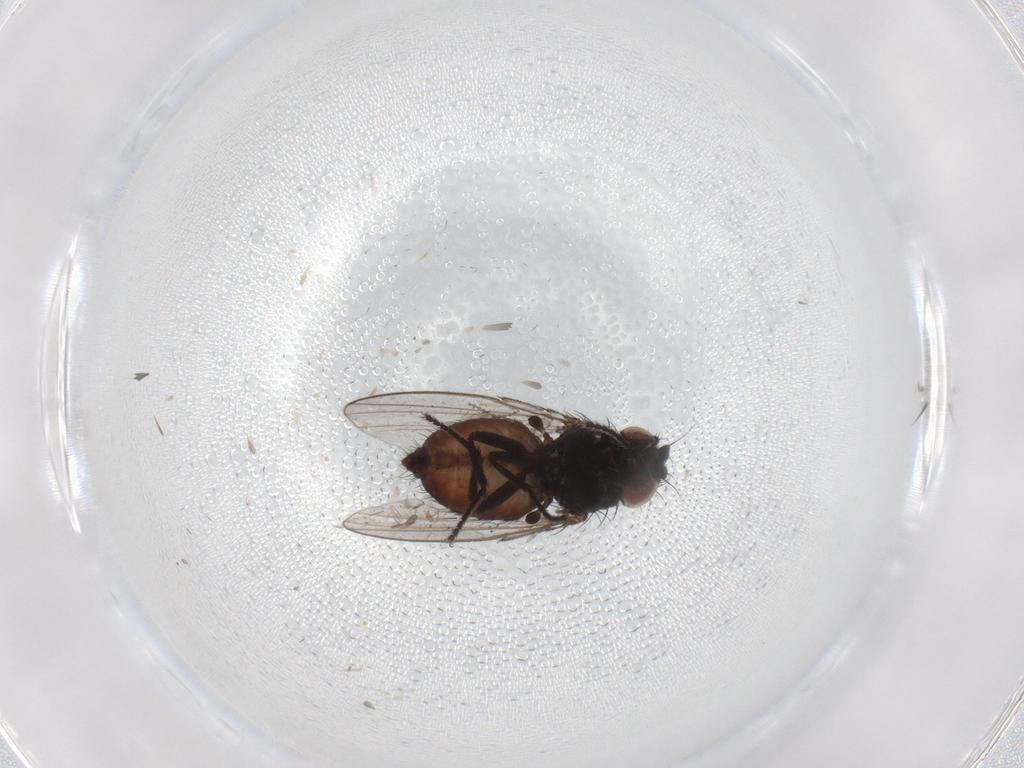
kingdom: Animalia
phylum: Arthropoda
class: Insecta
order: Diptera
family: Milichiidae
